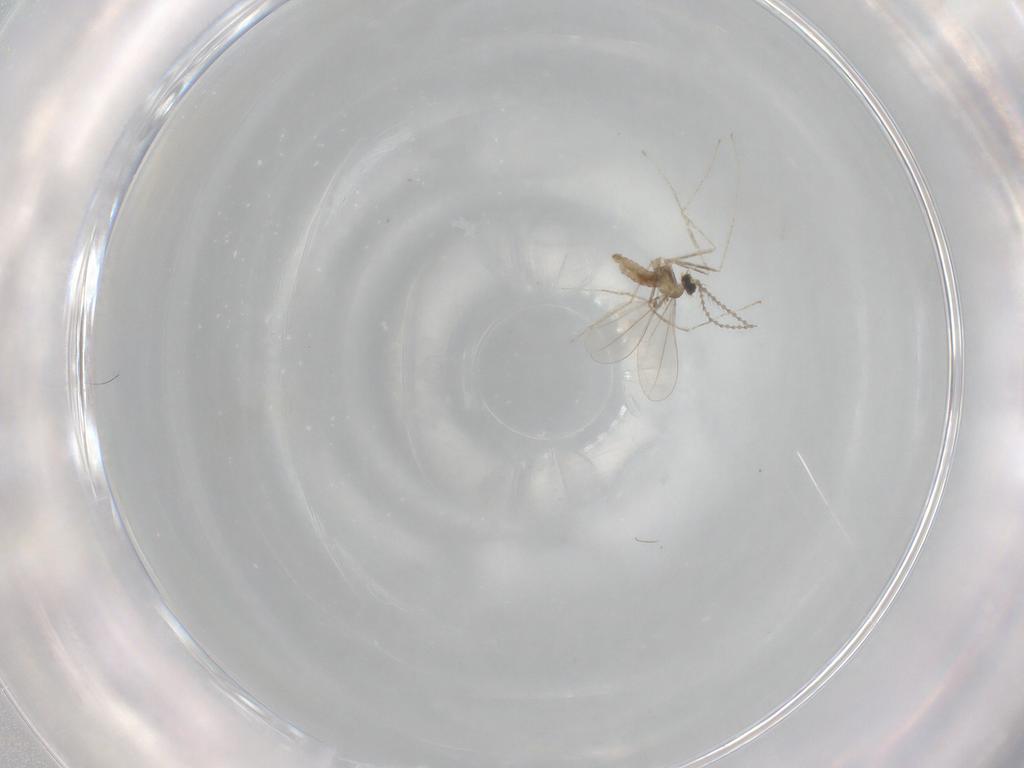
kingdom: Animalia
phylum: Arthropoda
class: Insecta
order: Diptera
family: Cecidomyiidae
